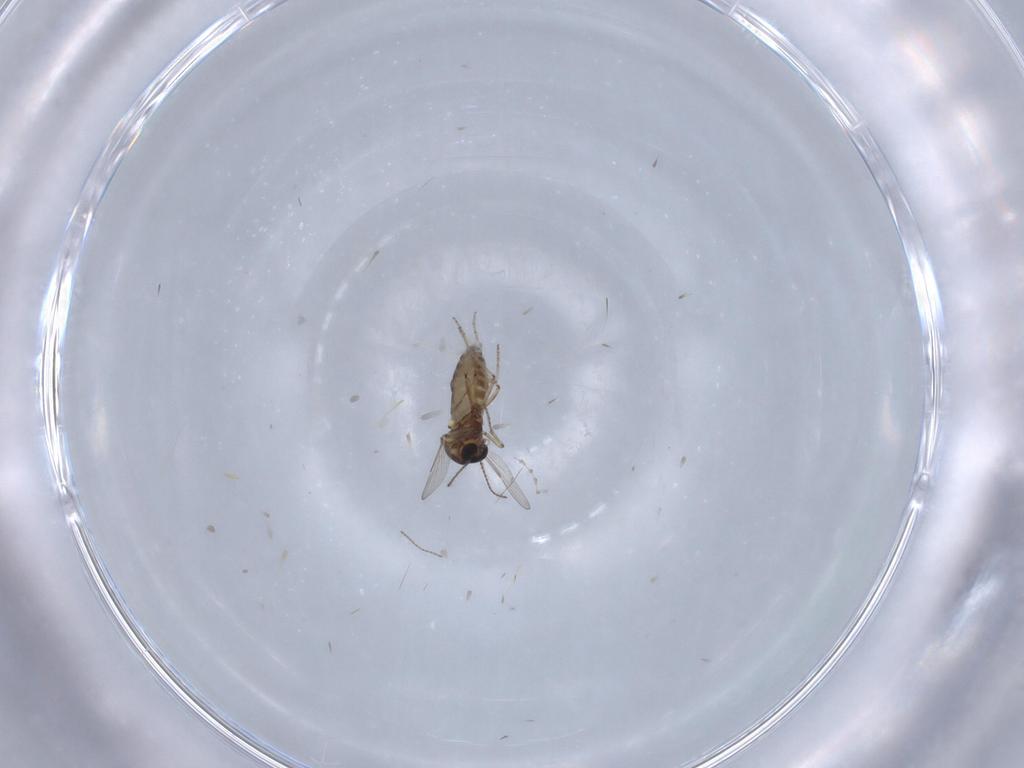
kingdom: Animalia
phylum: Arthropoda
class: Insecta
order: Diptera
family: Ceratopogonidae
